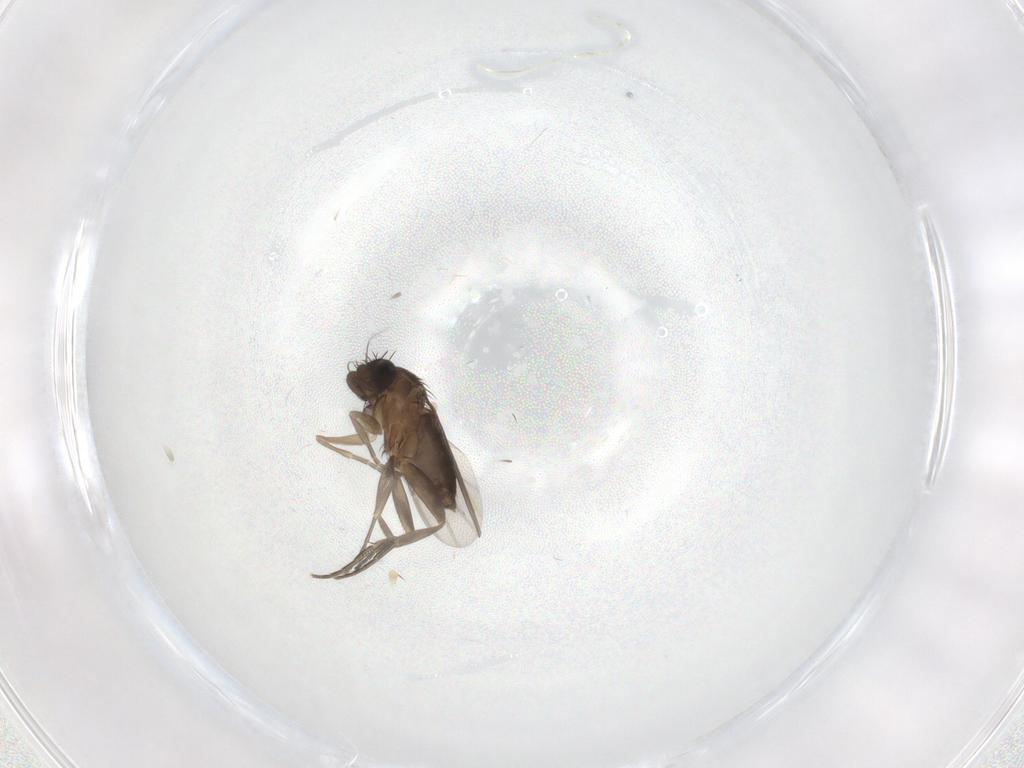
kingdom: Animalia
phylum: Arthropoda
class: Insecta
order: Diptera
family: Phoridae
